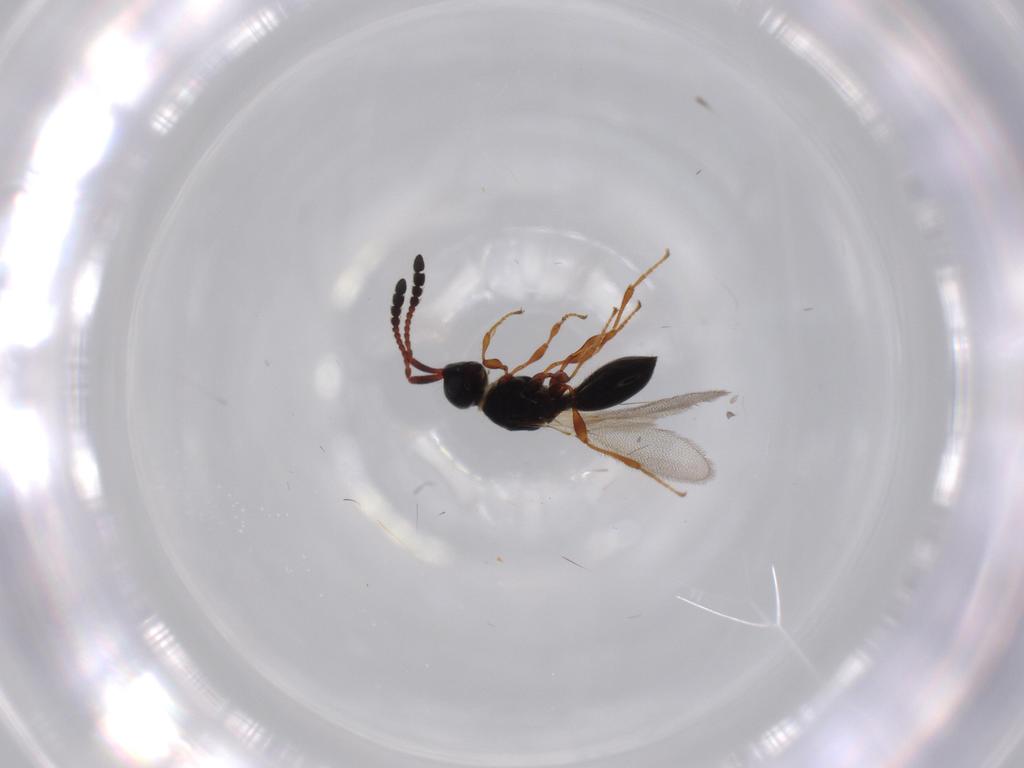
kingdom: Animalia
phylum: Arthropoda
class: Insecta
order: Hymenoptera
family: Diapriidae
